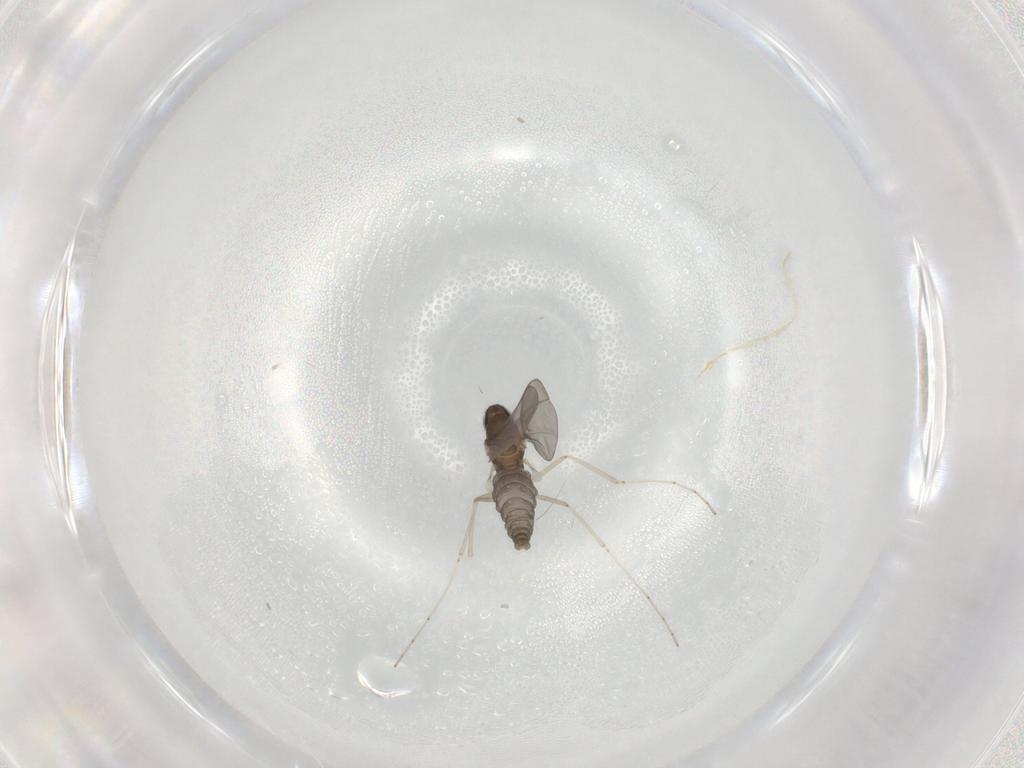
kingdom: Animalia
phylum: Arthropoda
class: Insecta
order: Diptera
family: Cecidomyiidae
